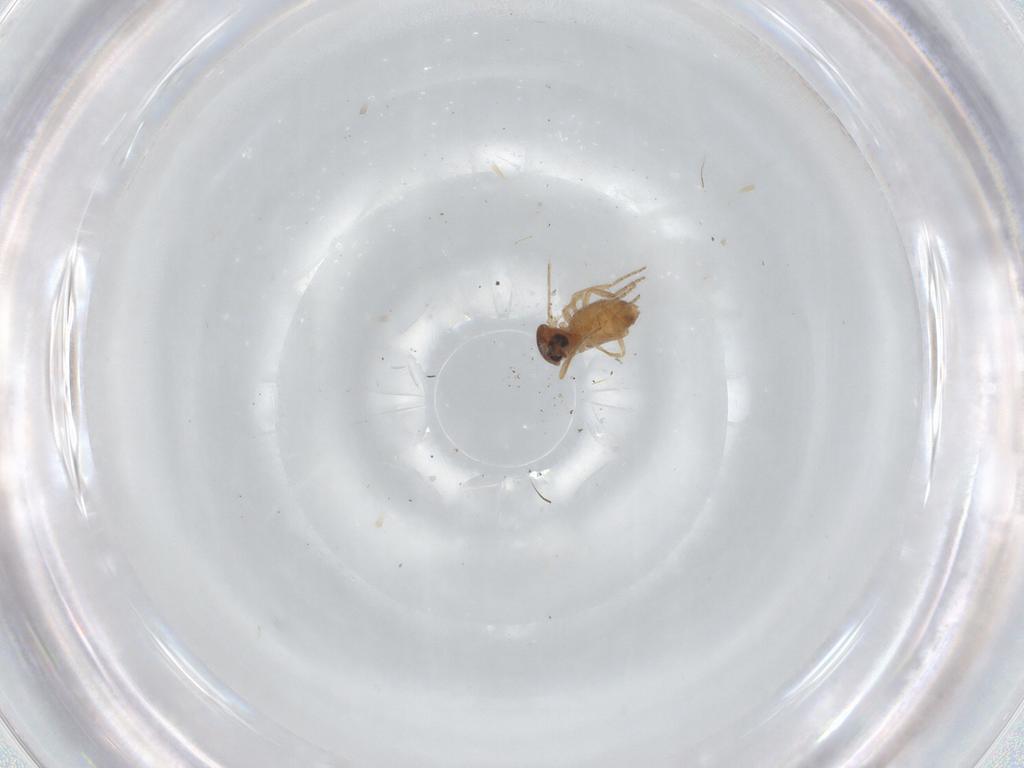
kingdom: Animalia
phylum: Arthropoda
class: Insecta
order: Diptera
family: Ceratopogonidae
